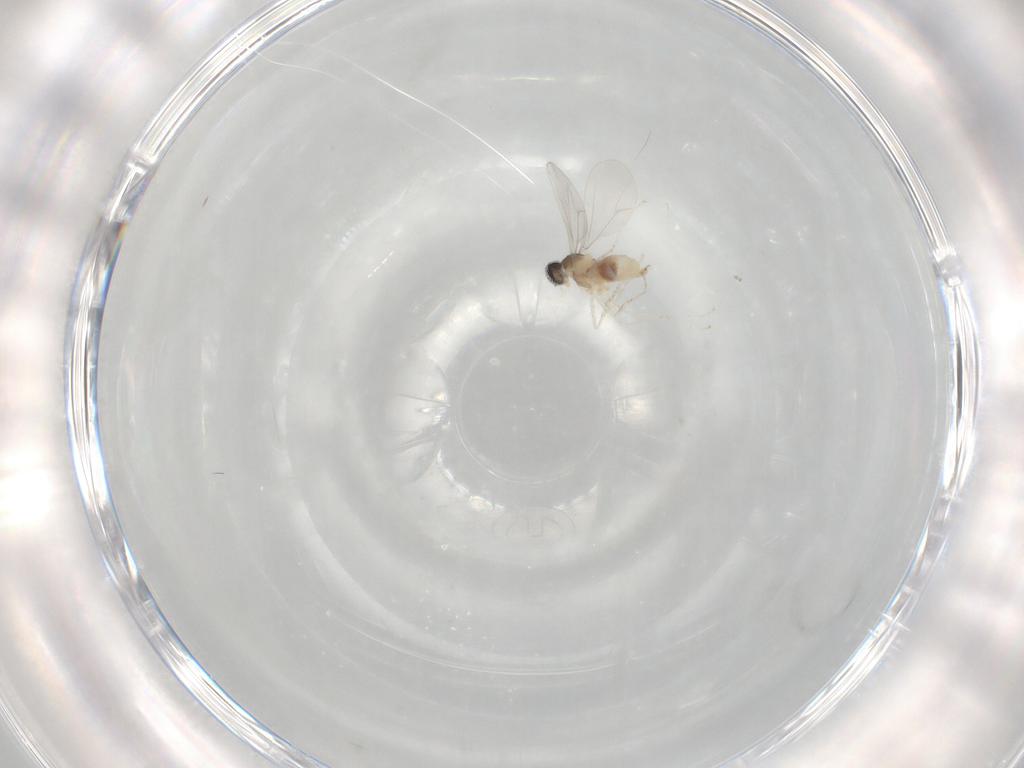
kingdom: Animalia
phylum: Arthropoda
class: Insecta
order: Diptera
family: Cecidomyiidae
